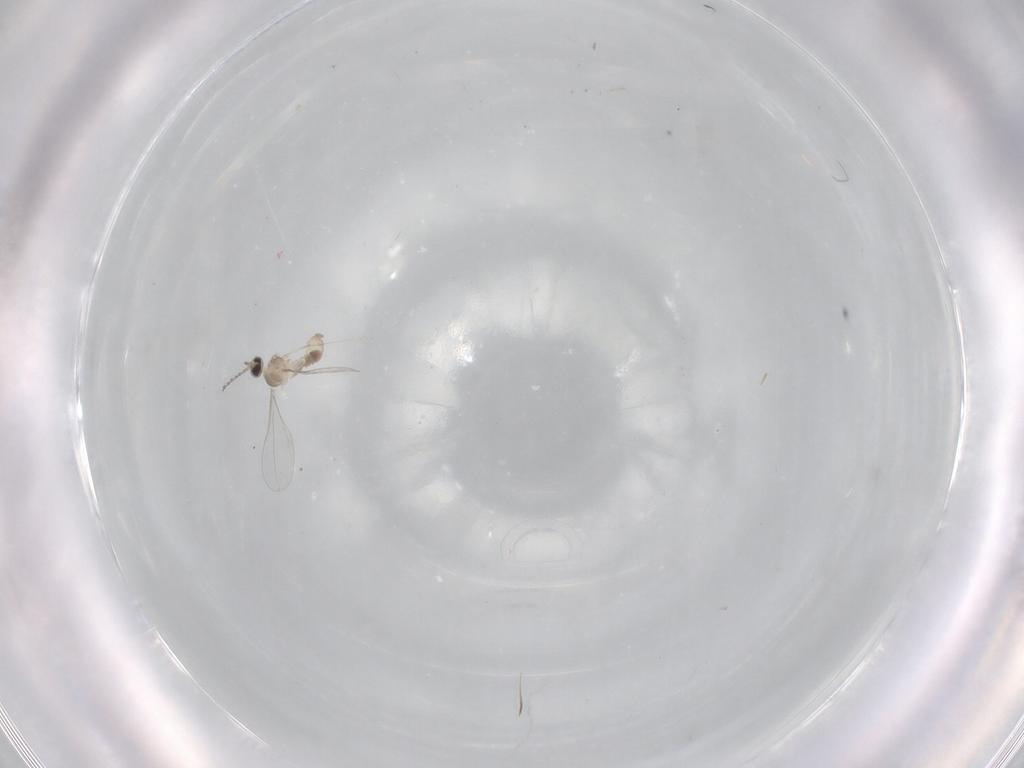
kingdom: Animalia
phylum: Arthropoda
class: Insecta
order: Diptera
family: Cecidomyiidae
